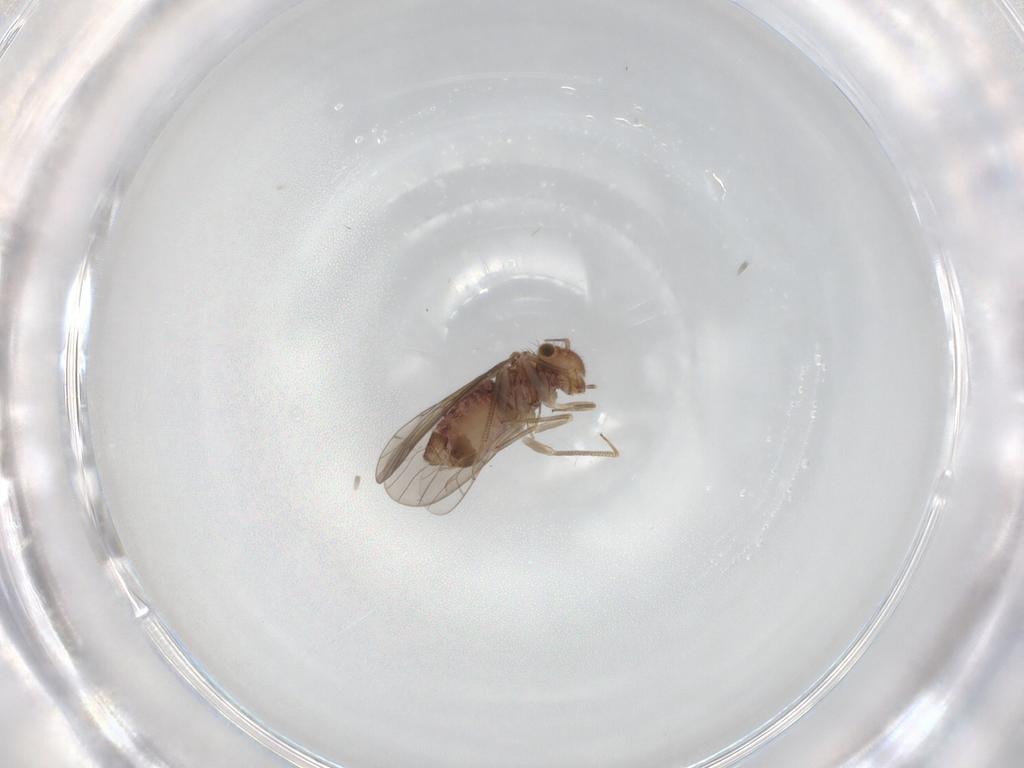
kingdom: Animalia
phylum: Arthropoda
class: Insecta
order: Psocodea
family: Ectopsocidae
